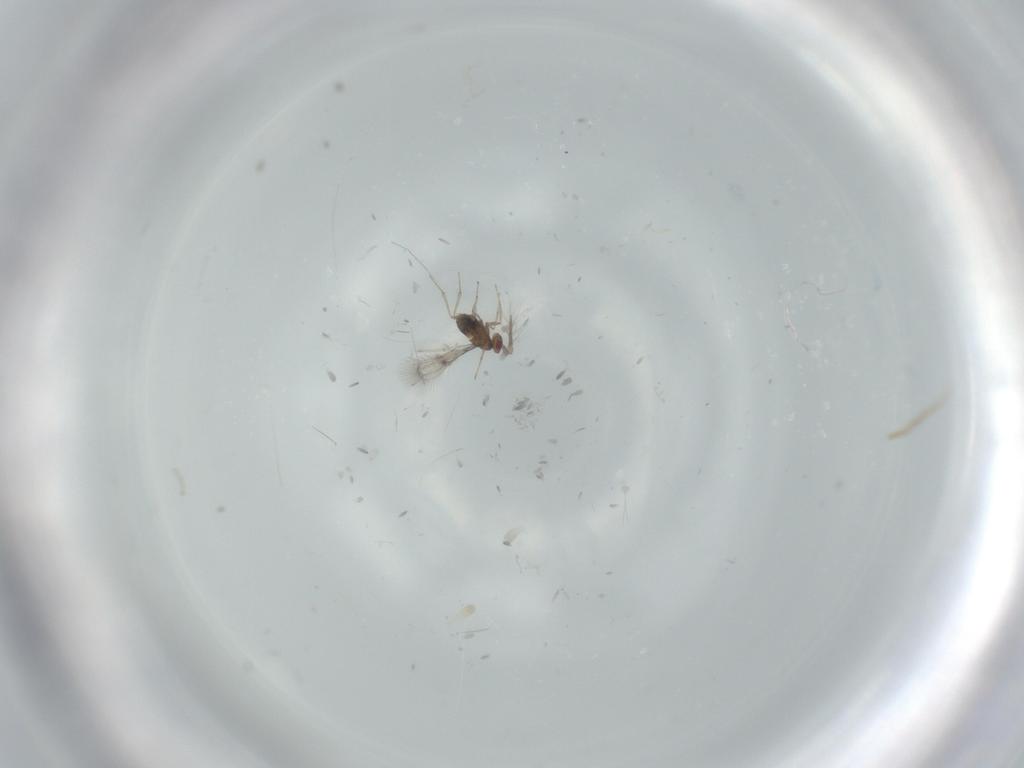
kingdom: Animalia
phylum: Arthropoda
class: Insecta
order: Hymenoptera
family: Trichogrammatidae
